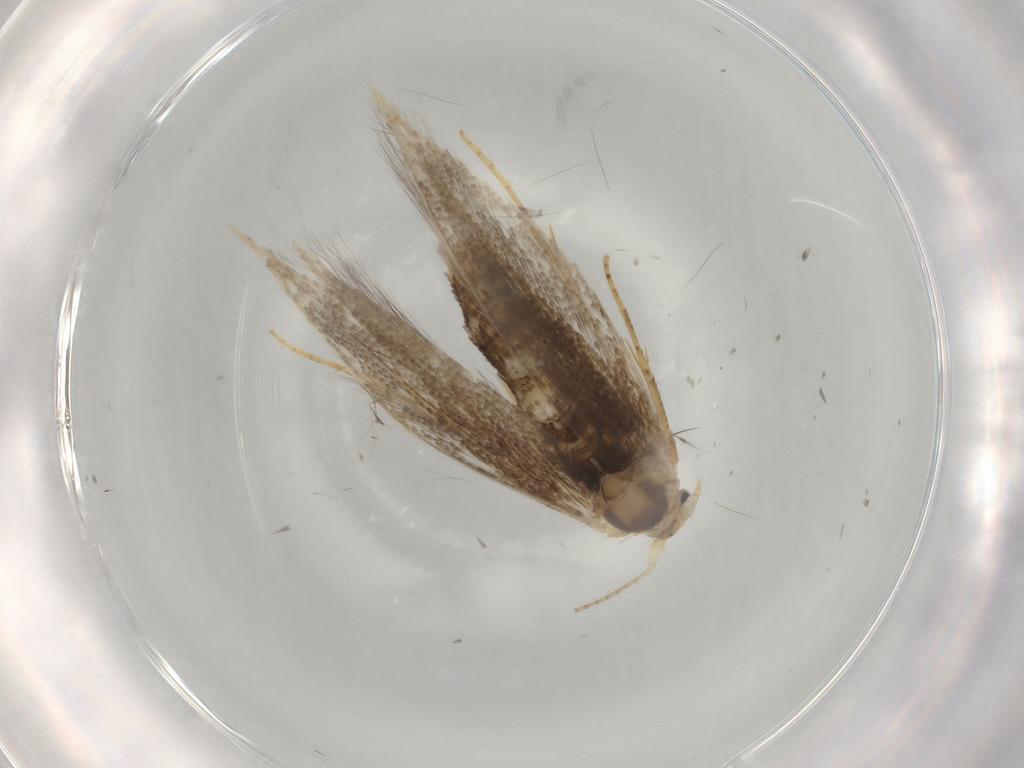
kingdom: Animalia
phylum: Arthropoda
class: Insecta
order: Lepidoptera
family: Bucculatricidae
